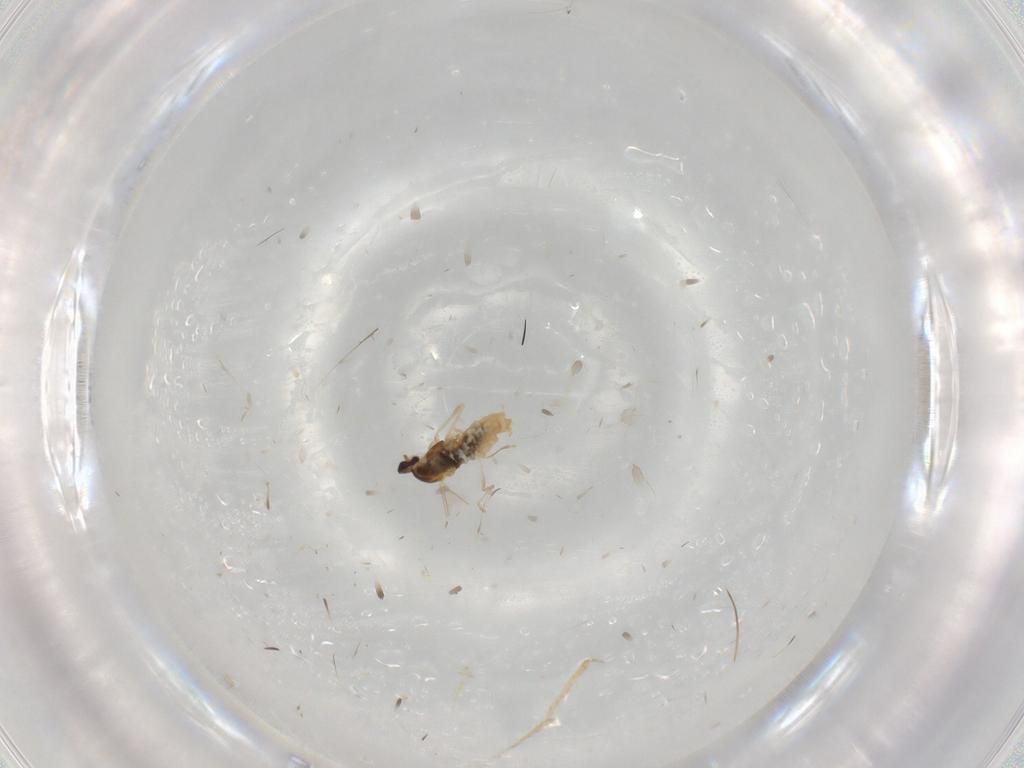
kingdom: Animalia
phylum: Arthropoda
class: Insecta
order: Diptera
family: Cecidomyiidae
